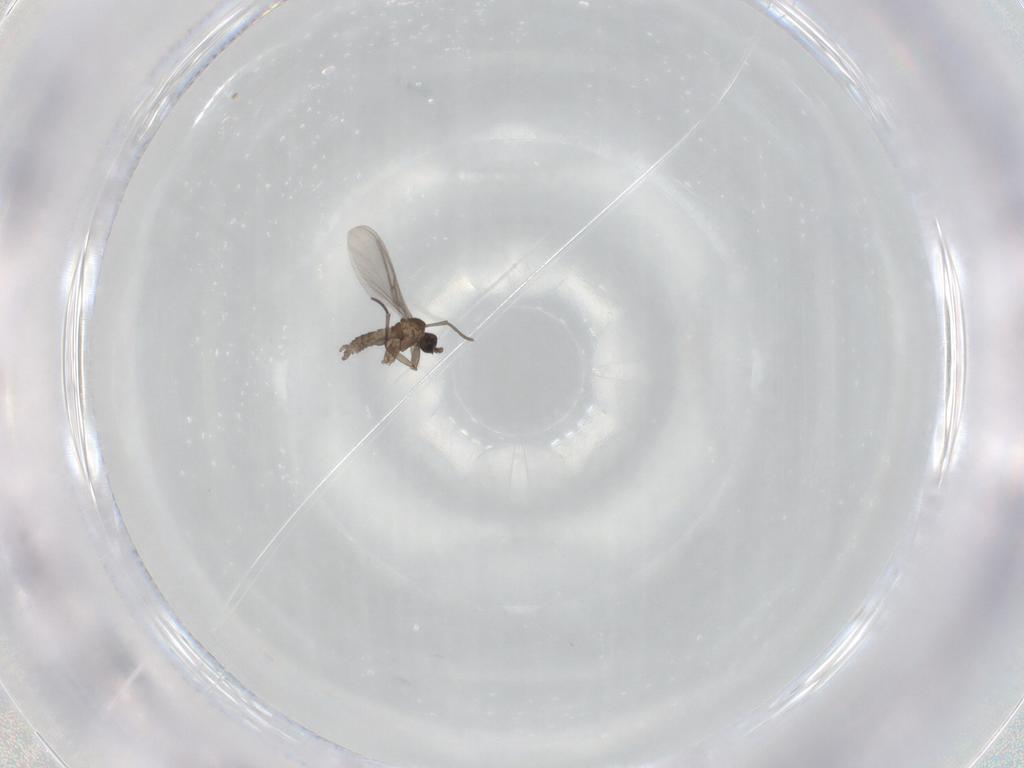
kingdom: Animalia
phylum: Arthropoda
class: Insecta
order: Diptera
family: Sciaridae
